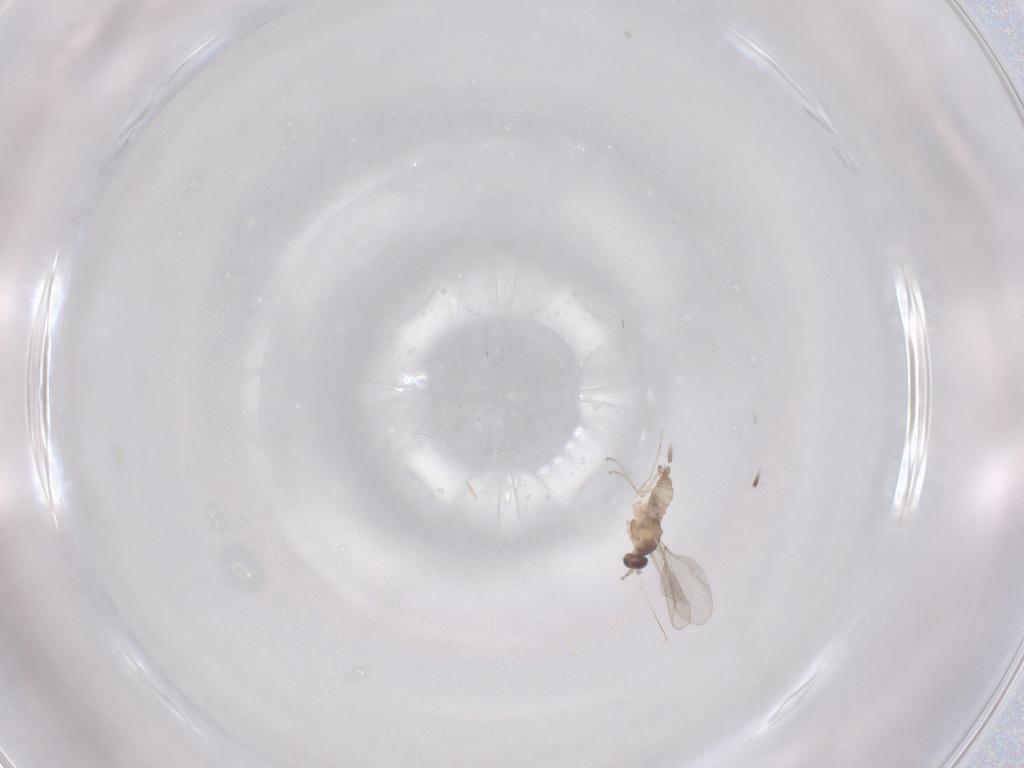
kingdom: Animalia
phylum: Arthropoda
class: Insecta
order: Diptera
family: Cecidomyiidae
